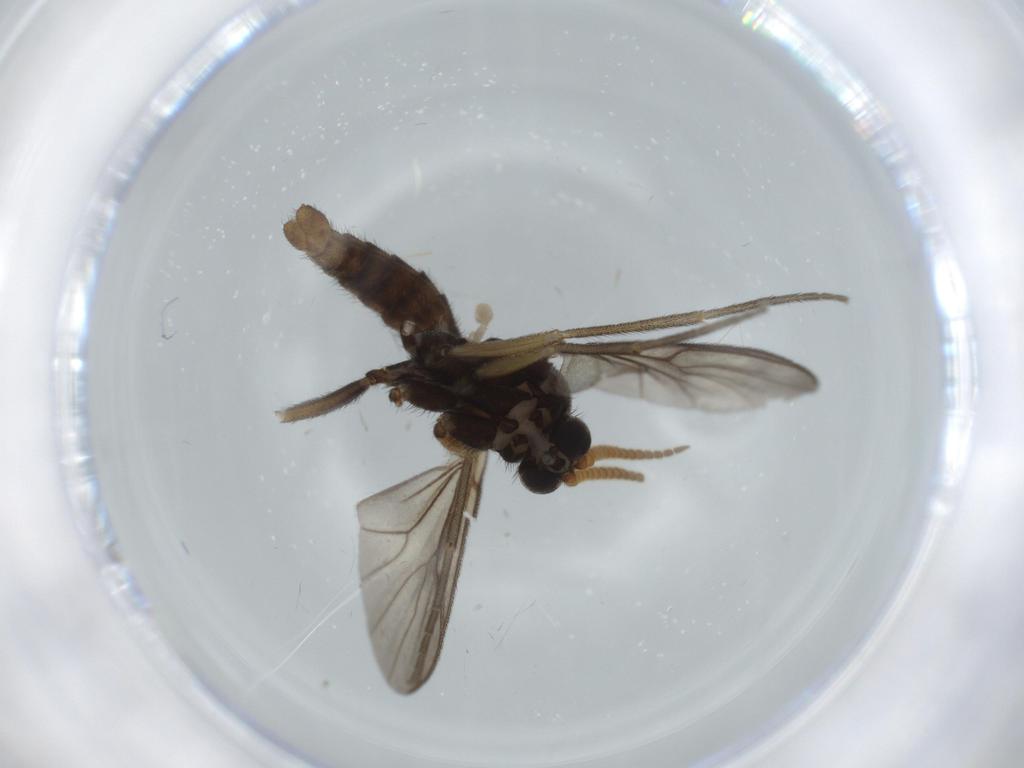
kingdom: Animalia
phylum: Arthropoda
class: Insecta
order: Diptera
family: Mycetophilidae
